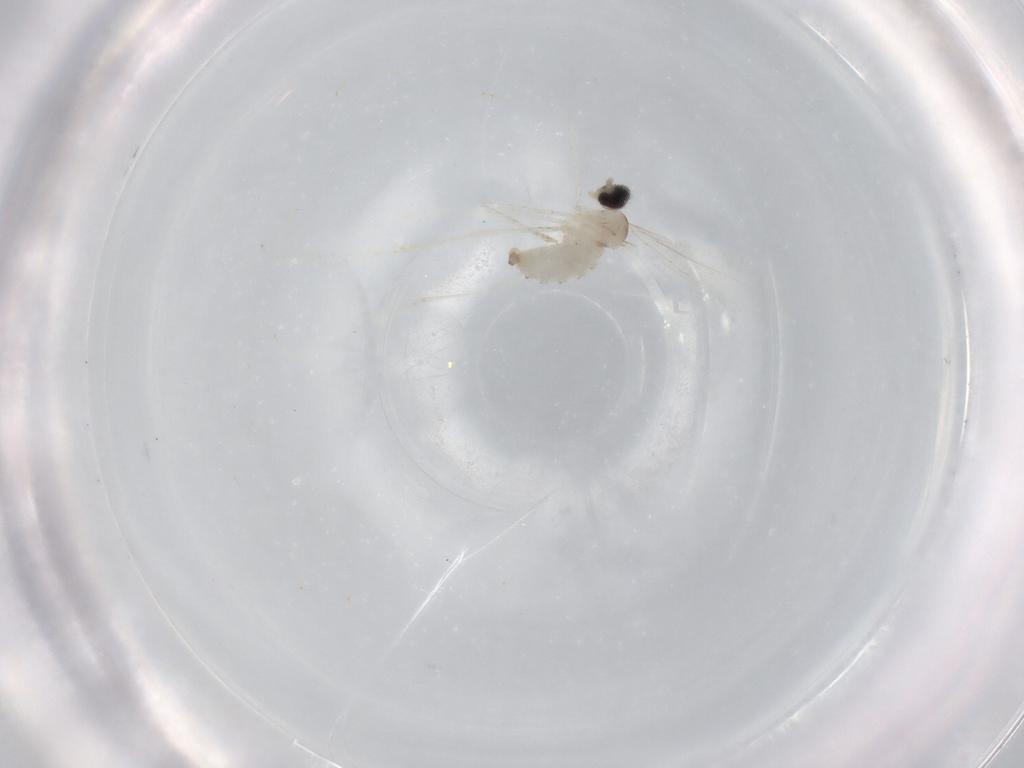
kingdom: Animalia
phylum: Arthropoda
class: Insecta
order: Diptera
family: Cecidomyiidae
